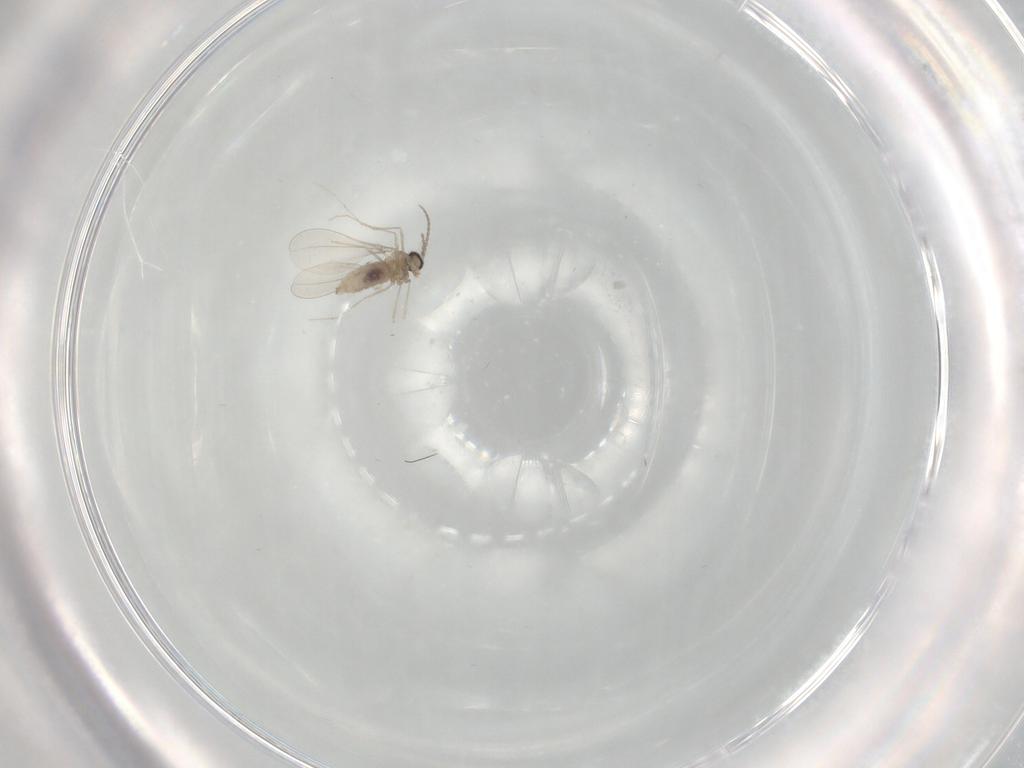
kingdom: Animalia
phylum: Arthropoda
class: Insecta
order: Diptera
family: Cecidomyiidae
